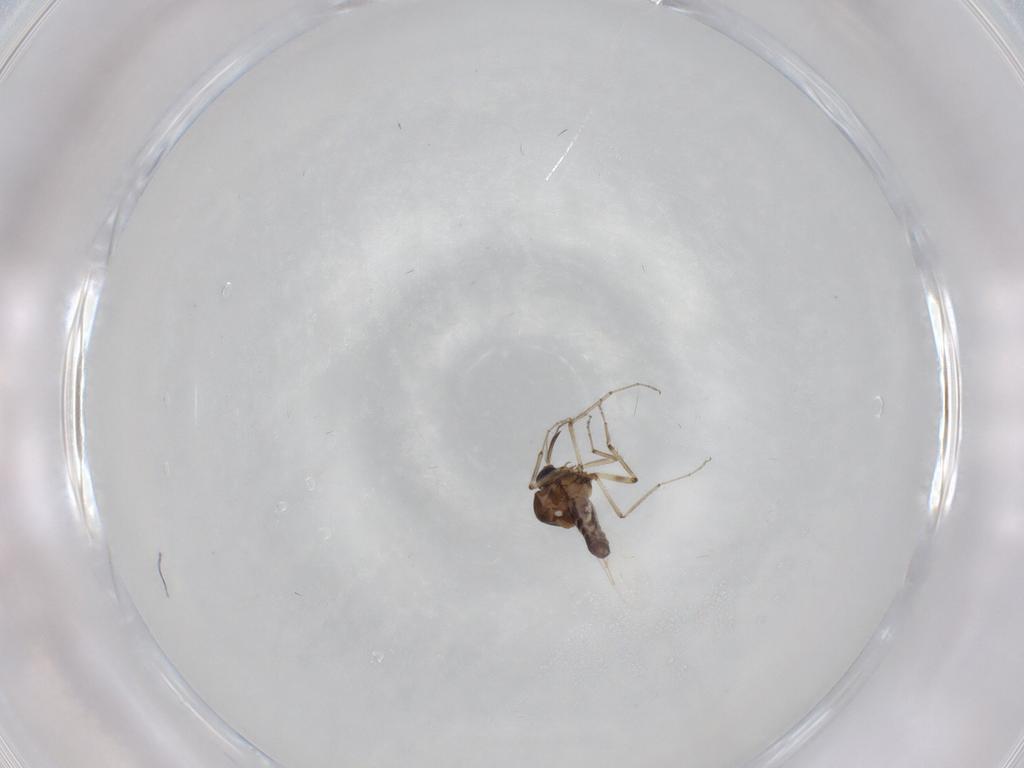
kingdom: Animalia
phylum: Arthropoda
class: Insecta
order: Diptera
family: Ceratopogonidae
